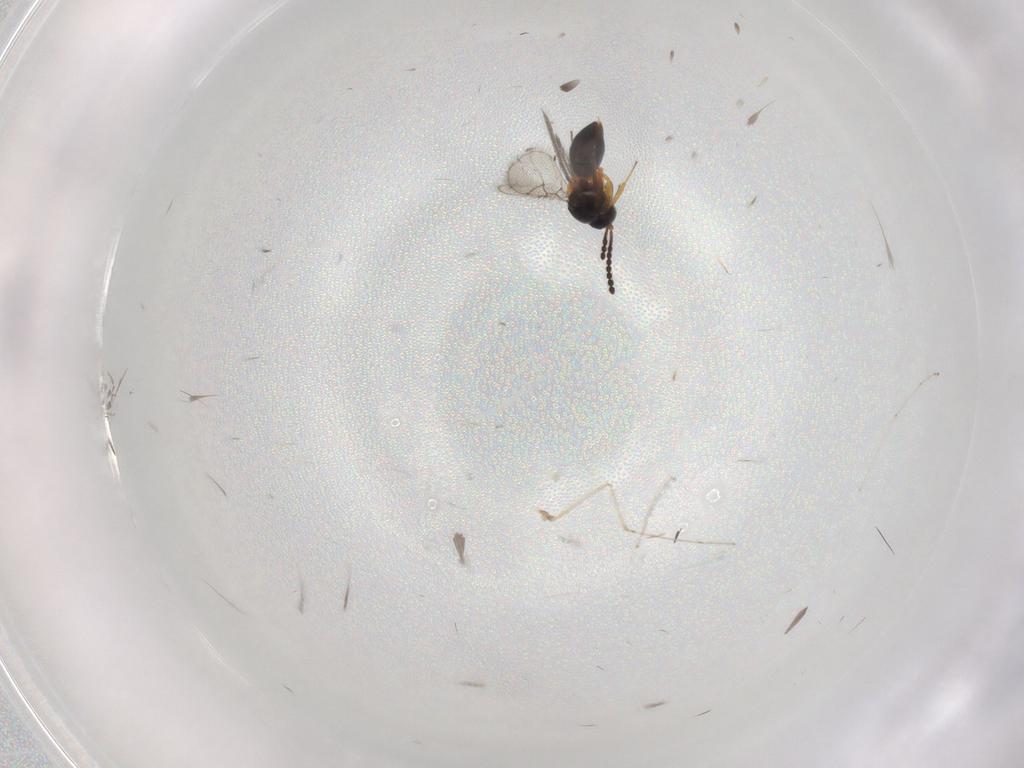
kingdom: Animalia
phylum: Arthropoda
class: Insecta
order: Hymenoptera
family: Figitidae
